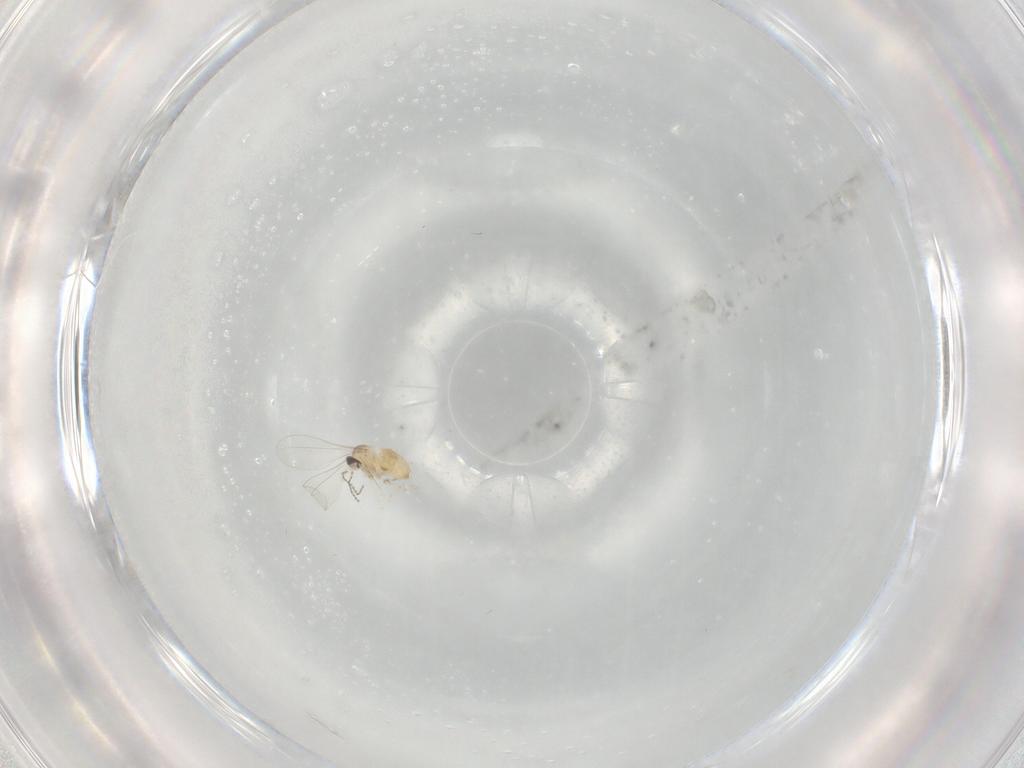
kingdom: Animalia
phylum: Arthropoda
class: Insecta
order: Diptera
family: Cecidomyiidae
